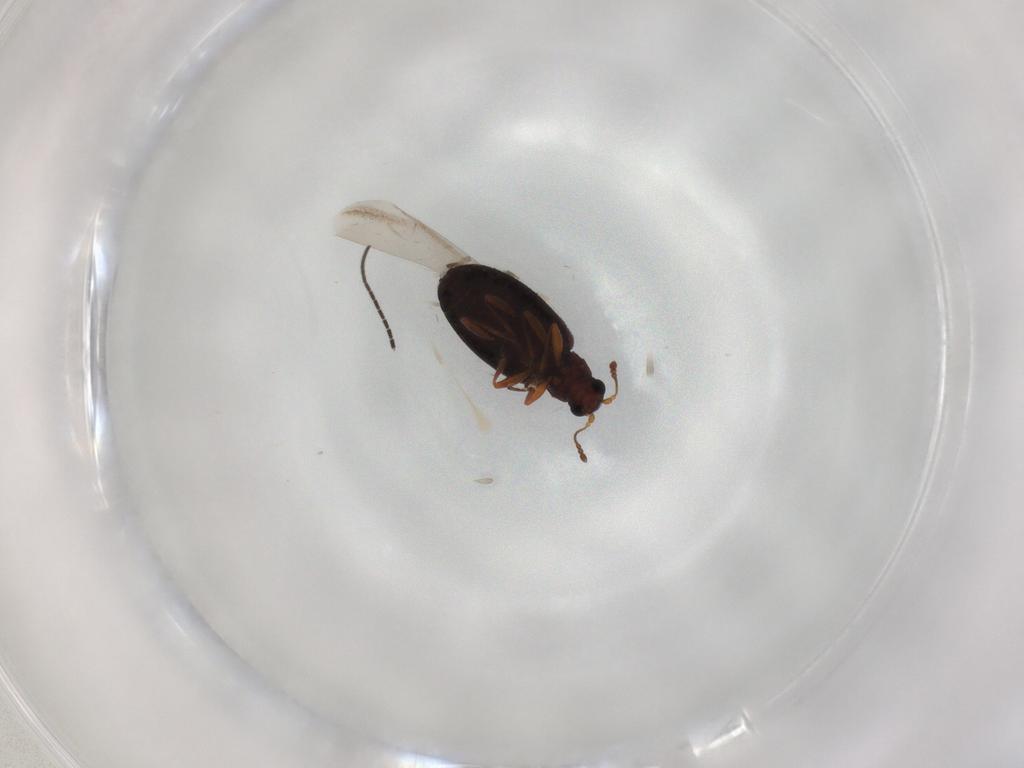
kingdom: Animalia
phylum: Arthropoda
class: Insecta
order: Coleoptera
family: Latridiidae
